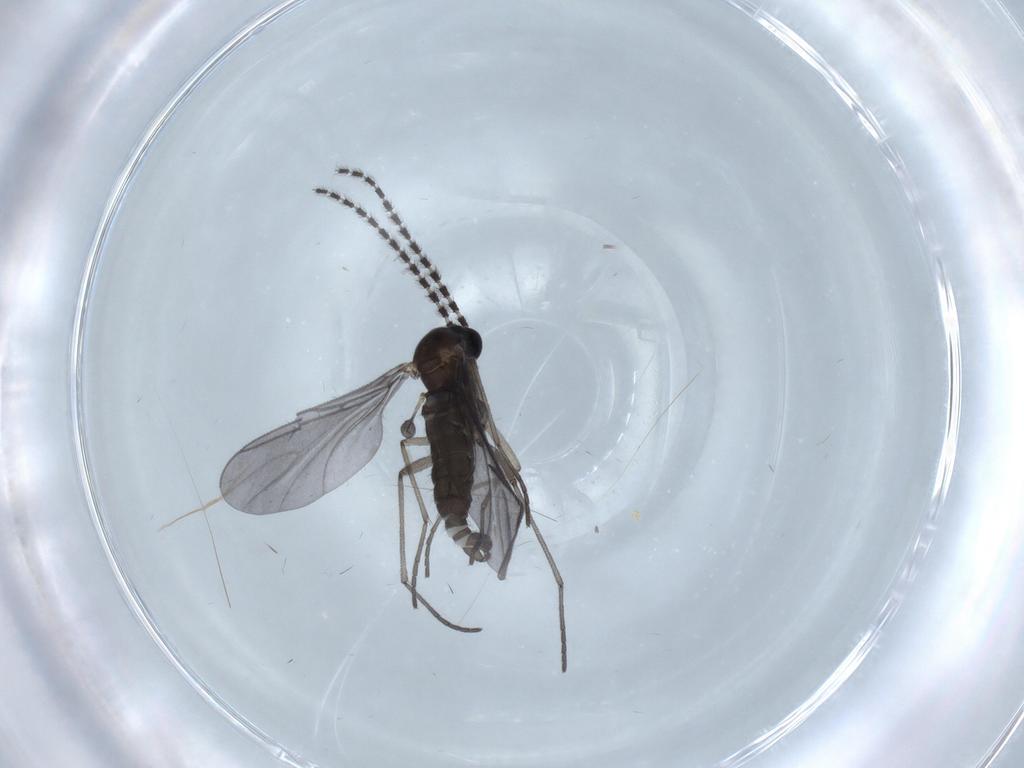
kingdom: Animalia
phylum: Arthropoda
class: Insecta
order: Diptera
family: Sciaridae
